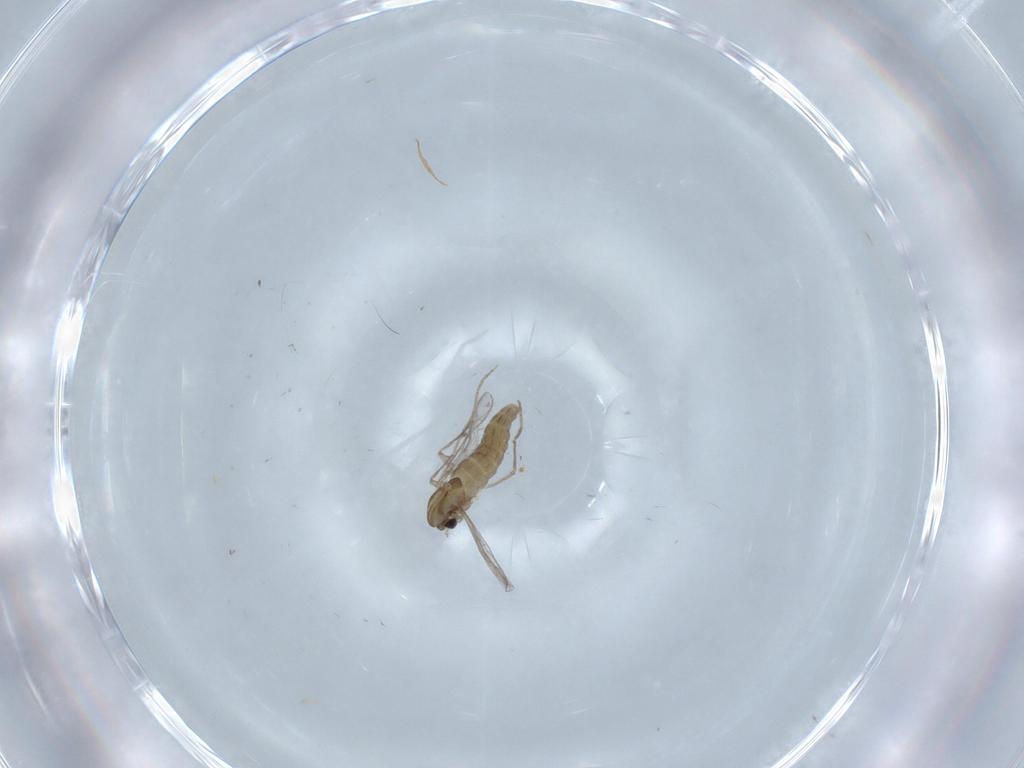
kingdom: Animalia
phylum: Arthropoda
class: Insecta
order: Diptera
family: Chironomidae
